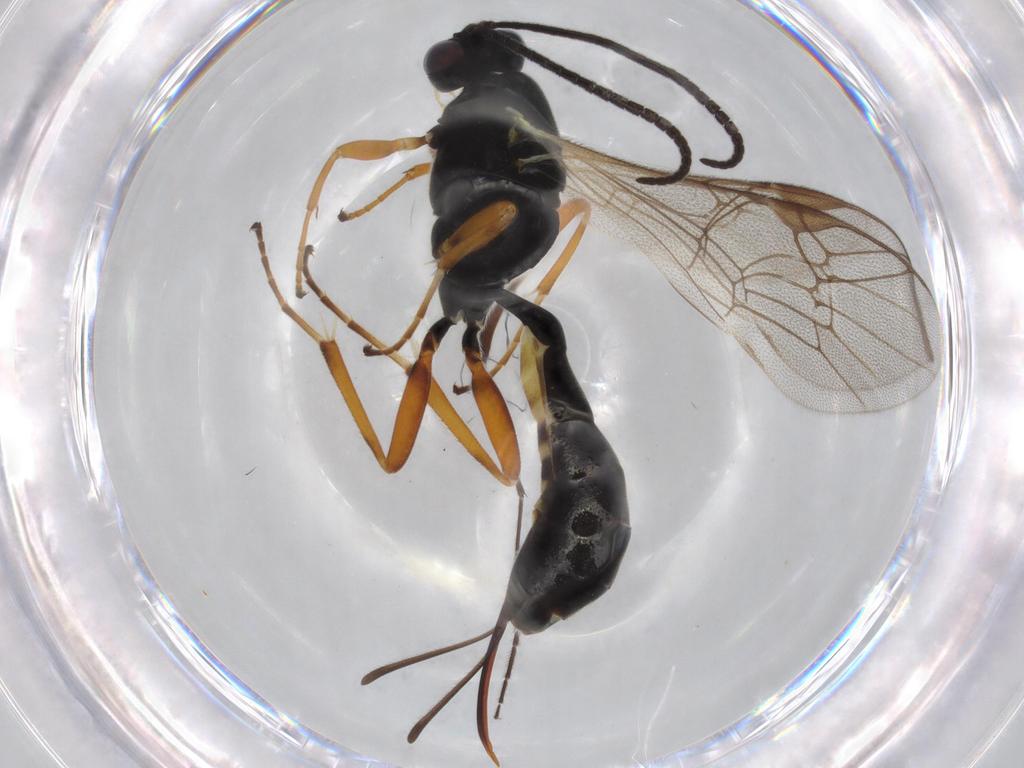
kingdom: Animalia
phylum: Arthropoda
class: Insecta
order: Hymenoptera
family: Ichneumonidae
